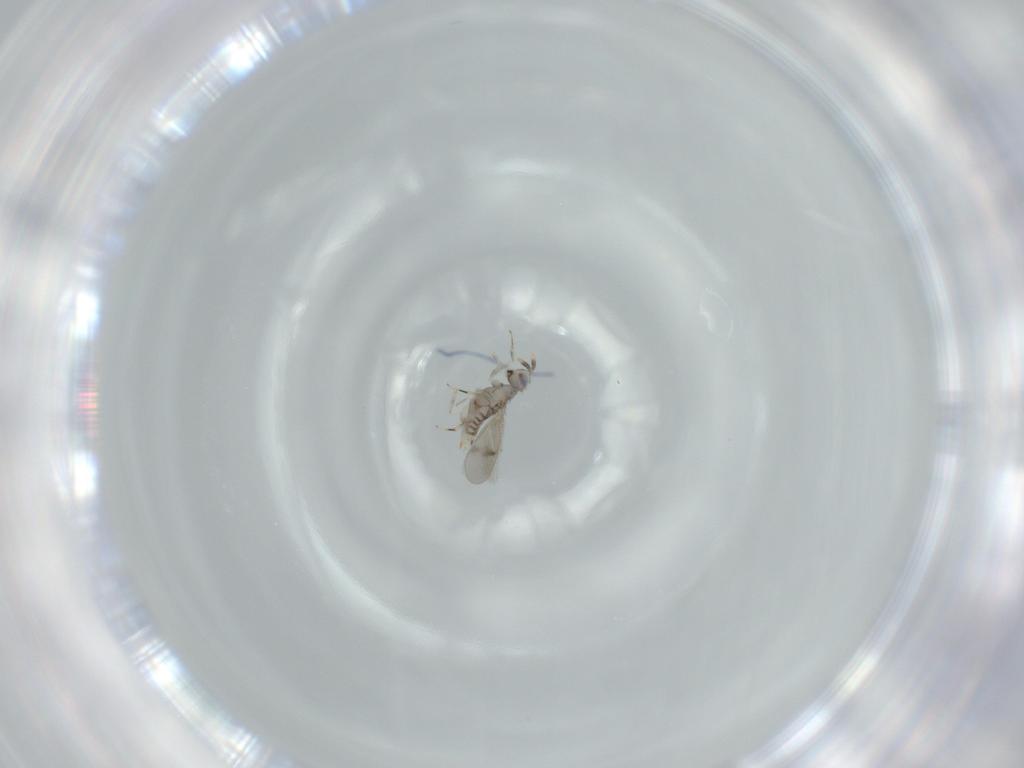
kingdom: Animalia
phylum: Arthropoda
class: Insecta
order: Hymenoptera
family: Aphelinidae
